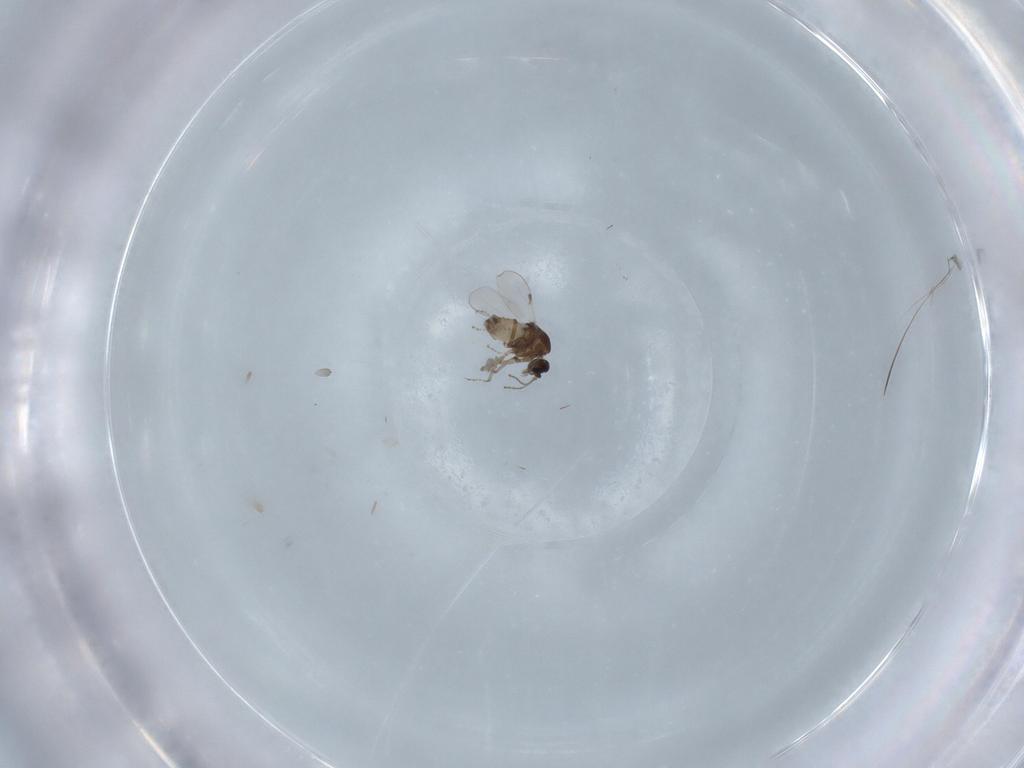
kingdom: Animalia
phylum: Arthropoda
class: Insecta
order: Diptera
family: Ceratopogonidae
